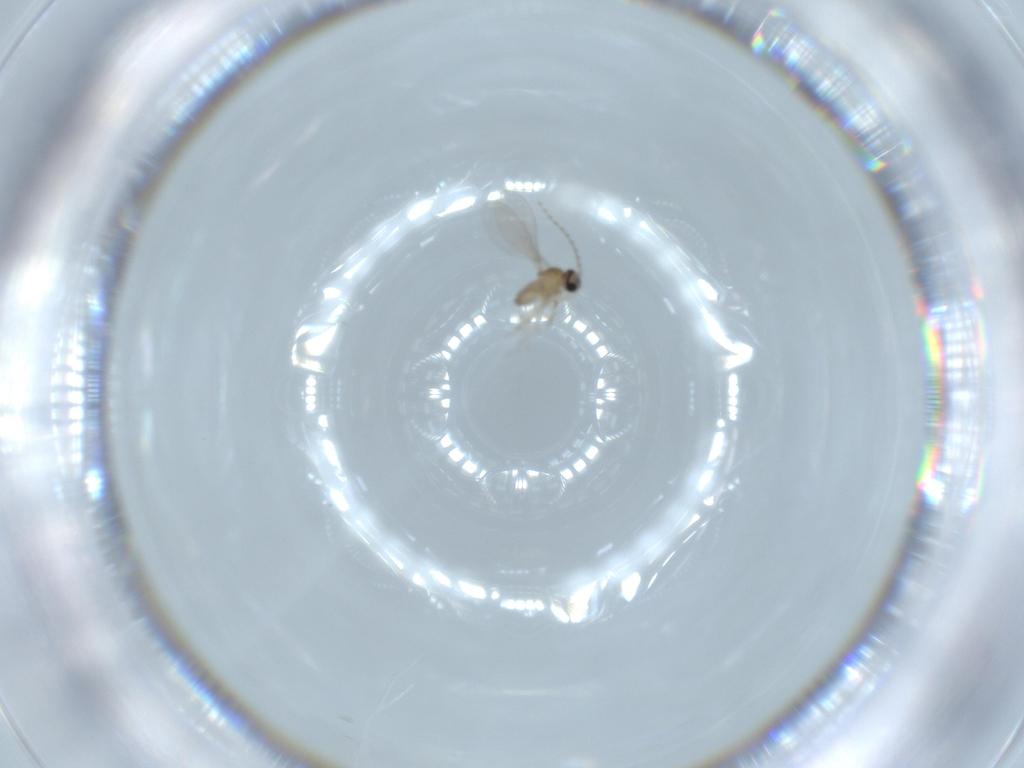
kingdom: Animalia
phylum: Arthropoda
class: Insecta
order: Diptera
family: Cecidomyiidae
